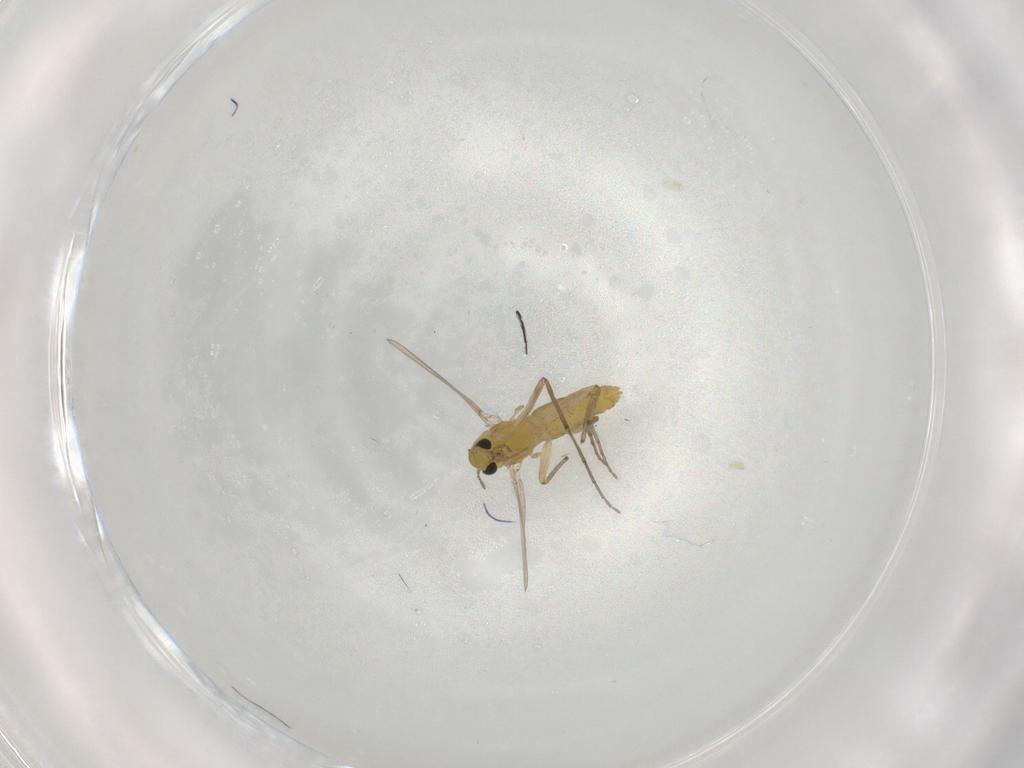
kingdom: Animalia
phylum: Arthropoda
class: Insecta
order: Diptera
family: Chironomidae
